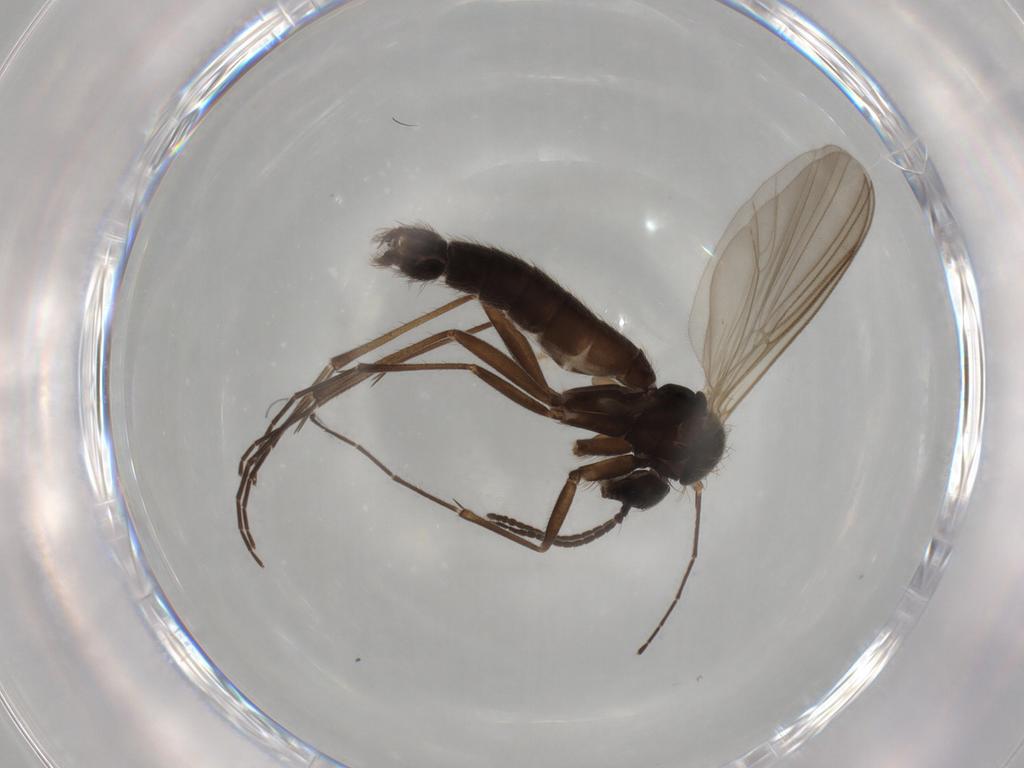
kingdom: Animalia
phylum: Arthropoda
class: Insecta
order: Diptera
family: Mycetophilidae
